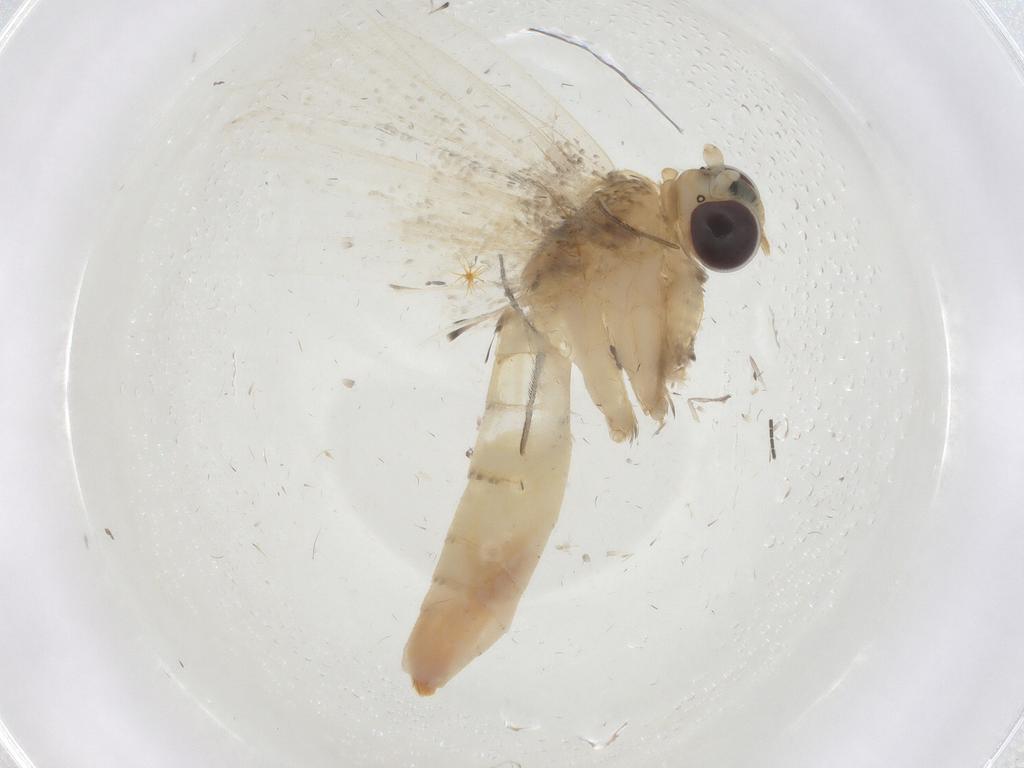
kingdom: Animalia
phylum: Arthropoda
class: Insecta
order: Lepidoptera
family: Erebidae
